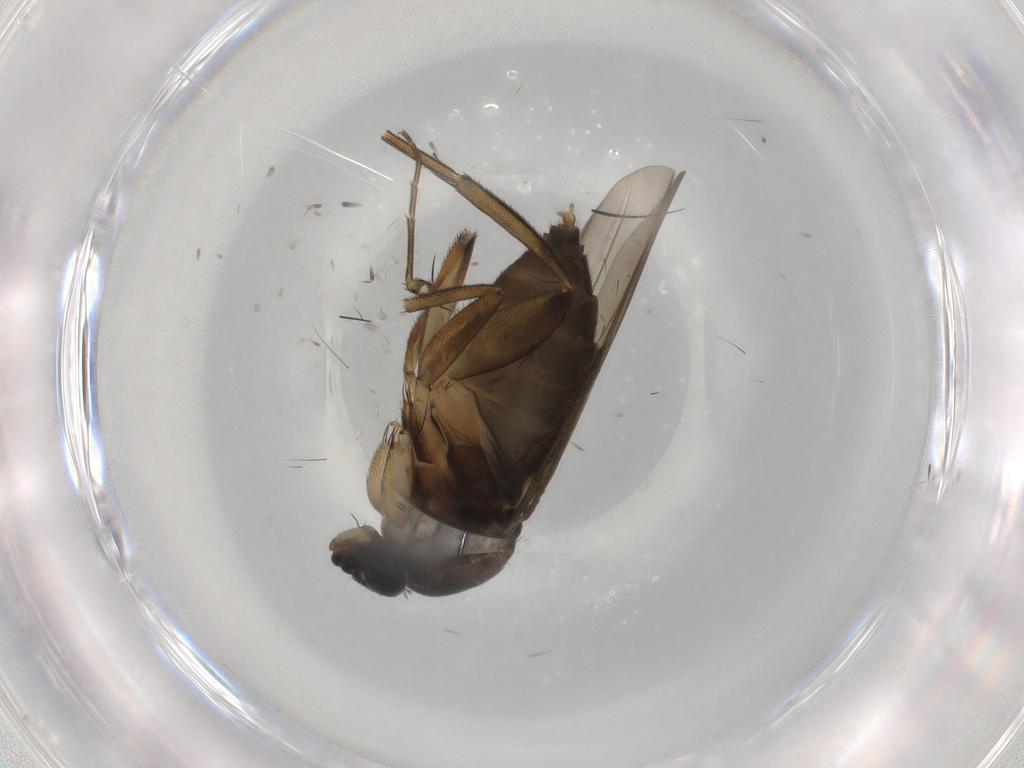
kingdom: Animalia
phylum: Arthropoda
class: Insecta
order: Diptera
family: Phoridae
